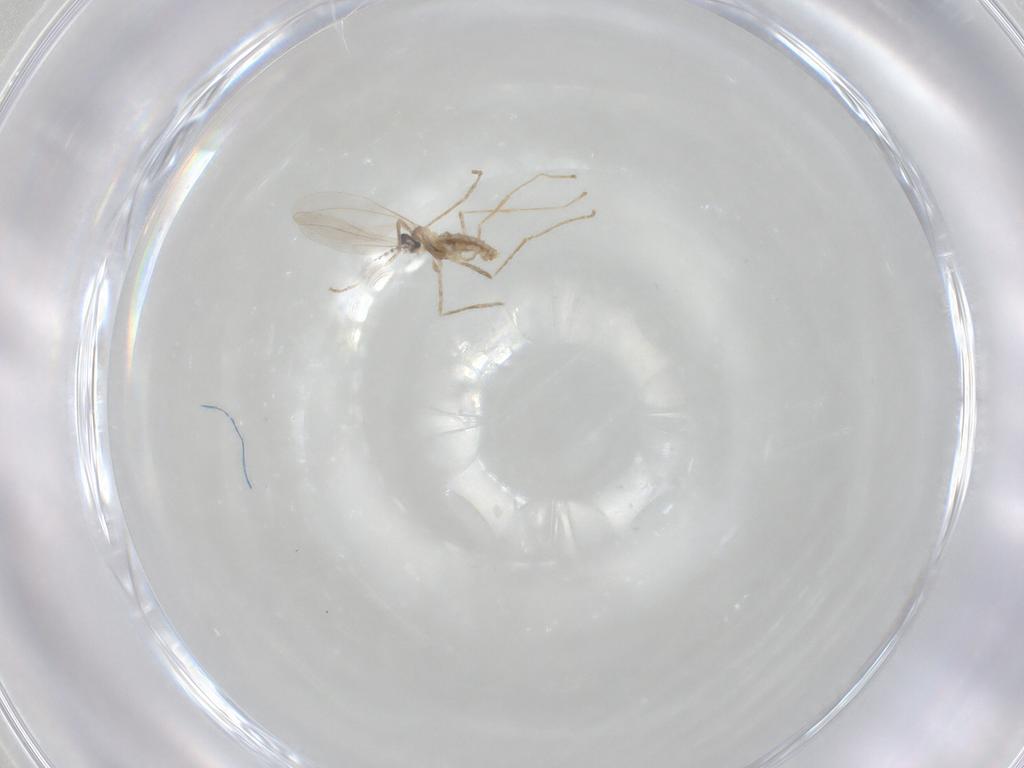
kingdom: Animalia
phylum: Arthropoda
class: Insecta
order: Diptera
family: Cecidomyiidae
